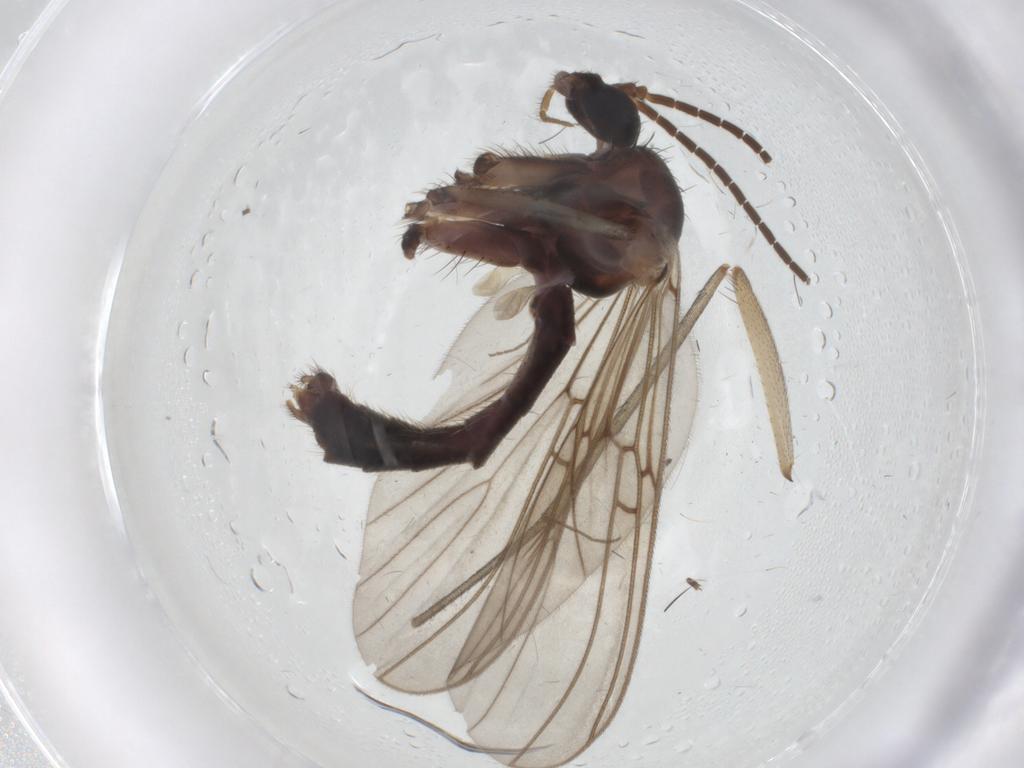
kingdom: Animalia
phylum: Arthropoda
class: Insecta
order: Diptera
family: Mycetophilidae
